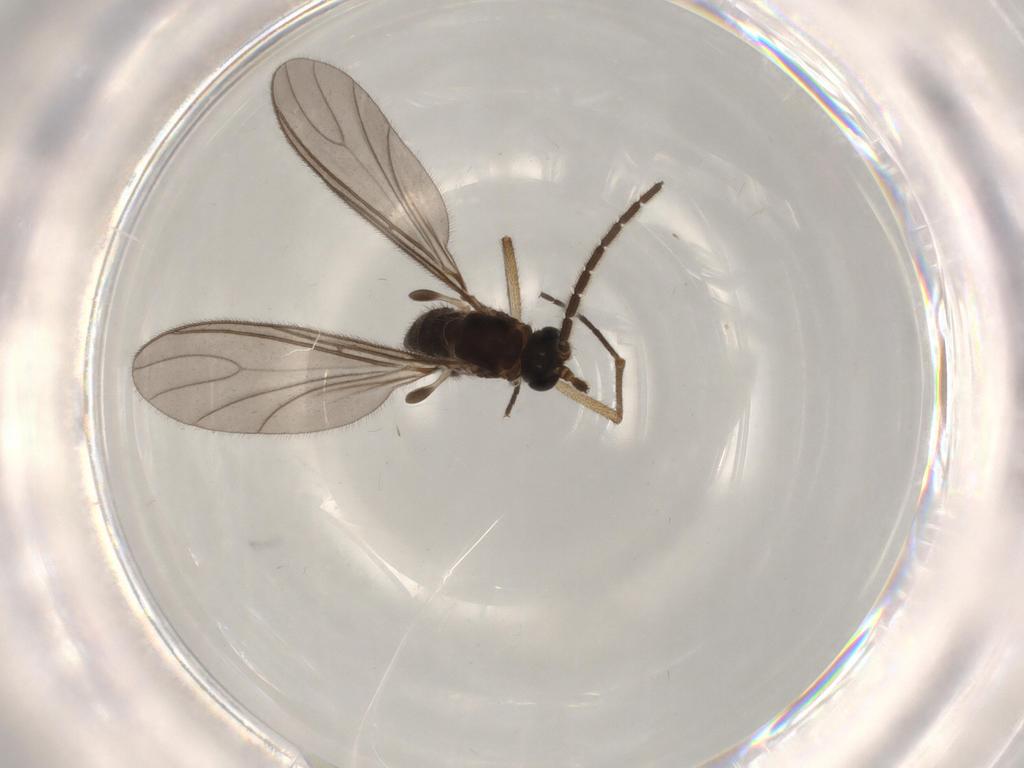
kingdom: Animalia
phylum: Arthropoda
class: Insecta
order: Diptera
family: Sciaridae
